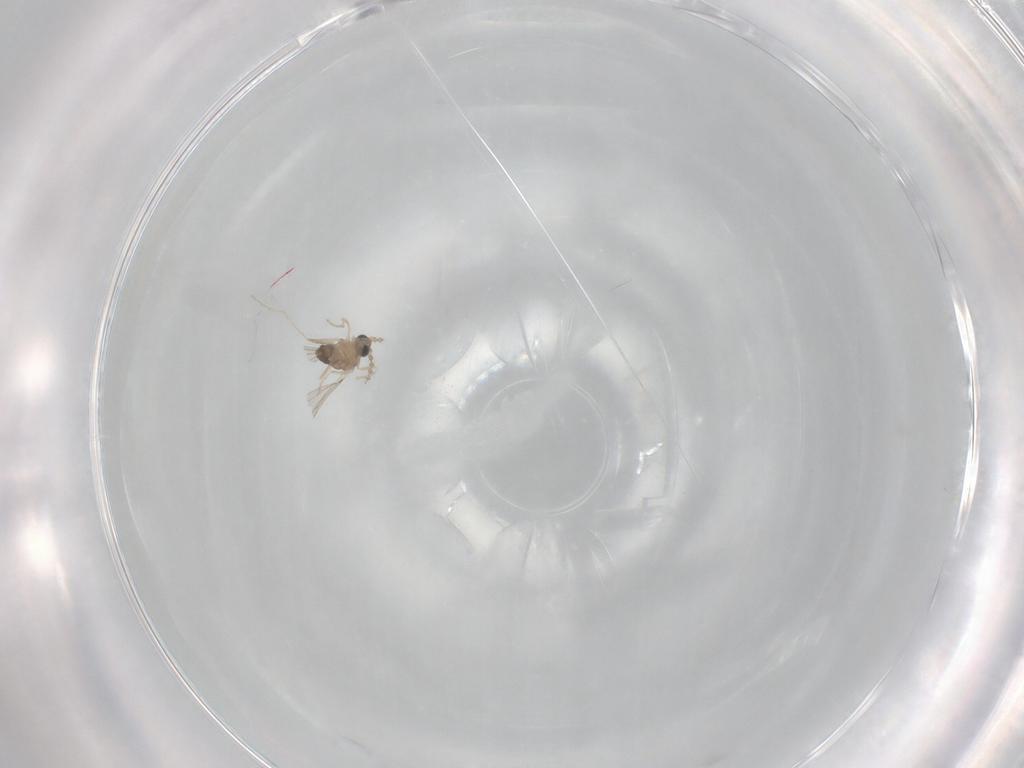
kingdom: Animalia
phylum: Arthropoda
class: Insecta
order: Diptera
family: Cecidomyiidae
